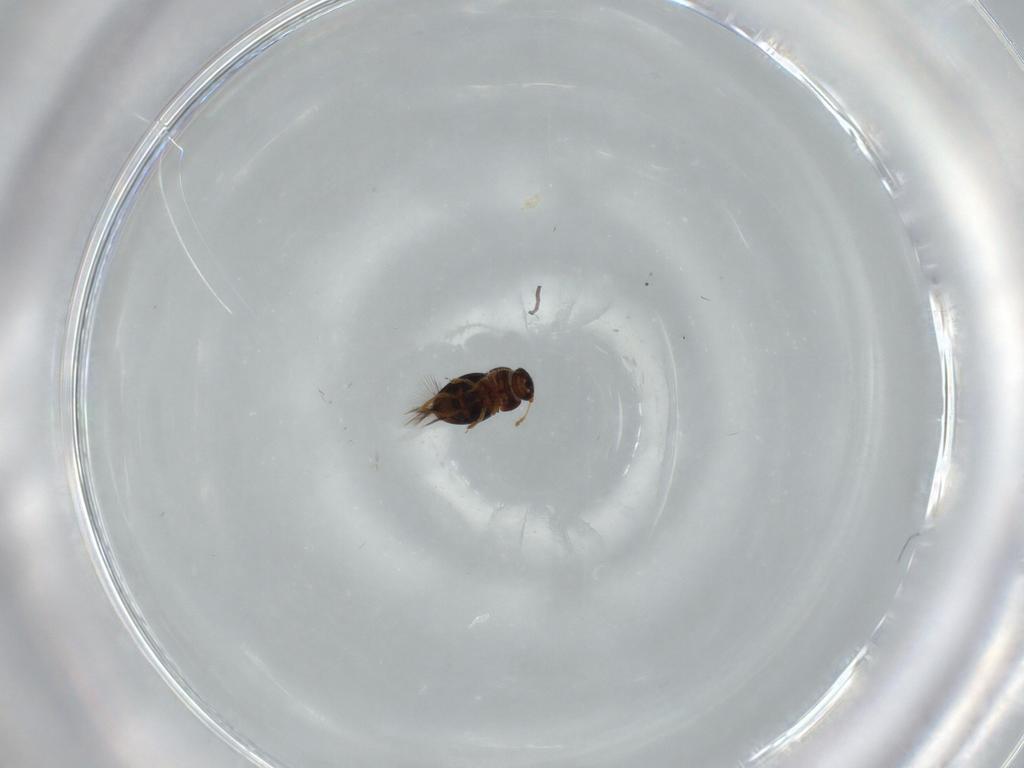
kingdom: Animalia
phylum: Arthropoda
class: Insecta
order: Coleoptera
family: Ptiliidae
